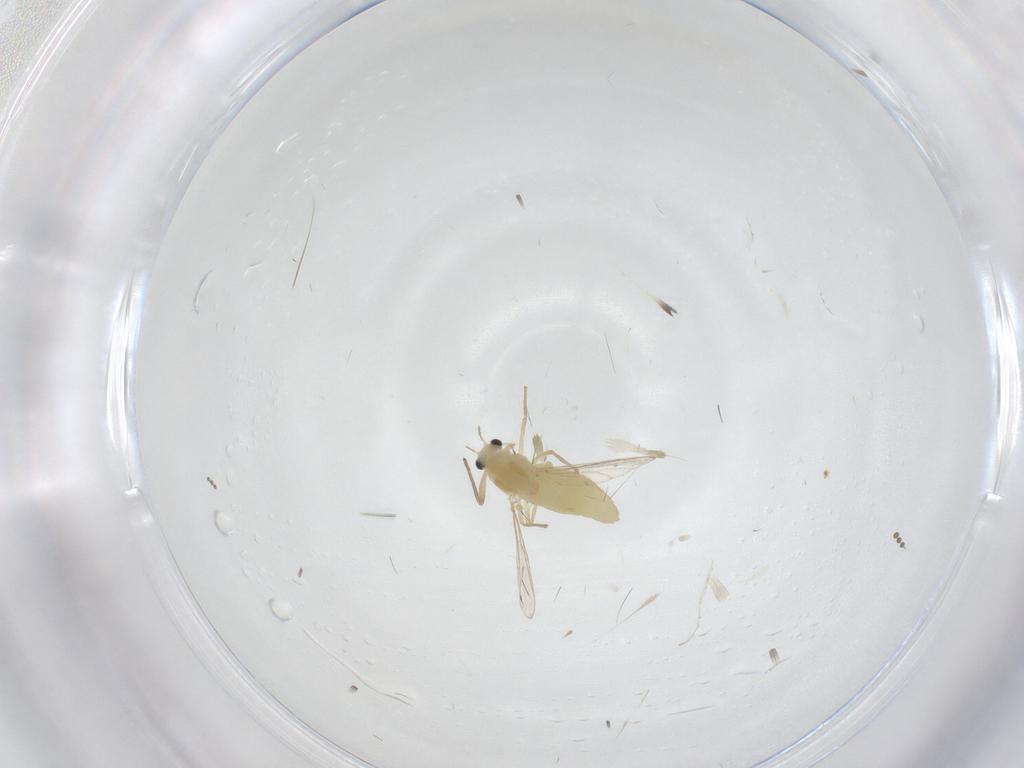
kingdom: Animalia
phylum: Arthropoda
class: Insecta
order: Diptera
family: Chironomidae
